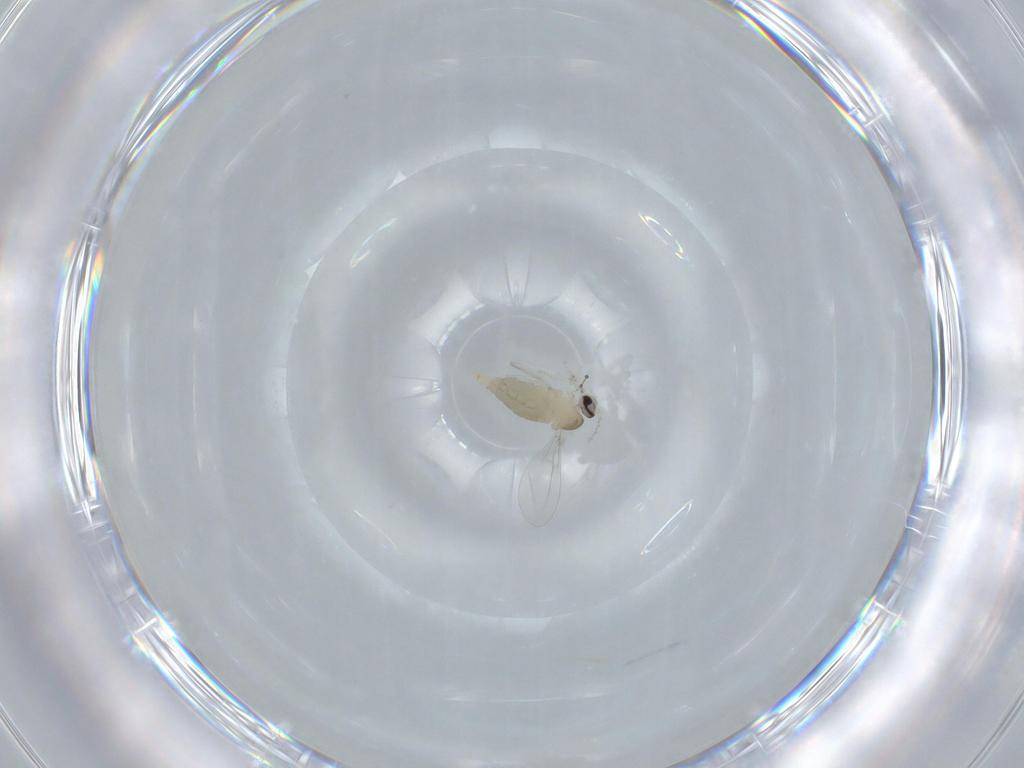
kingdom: Animalia
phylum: Arthropoda
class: Insecta
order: Diptera
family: Cecidomyiidae
